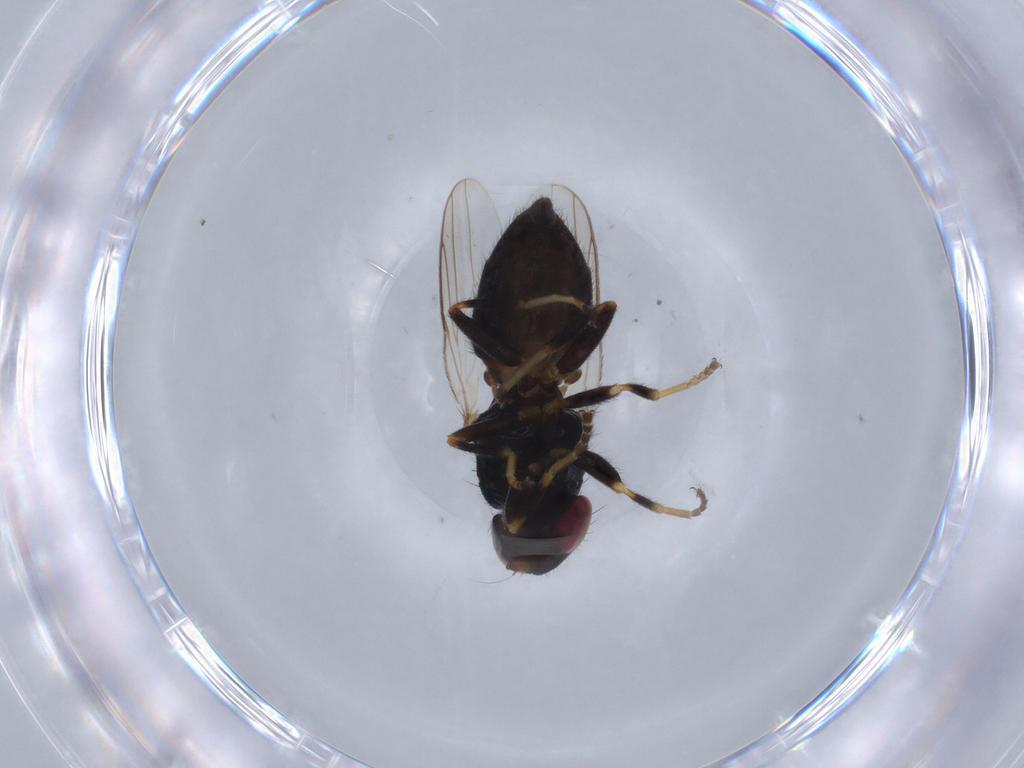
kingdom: Animalia
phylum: Arthropoda
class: Insecta
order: Diptera
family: Chloropidae
